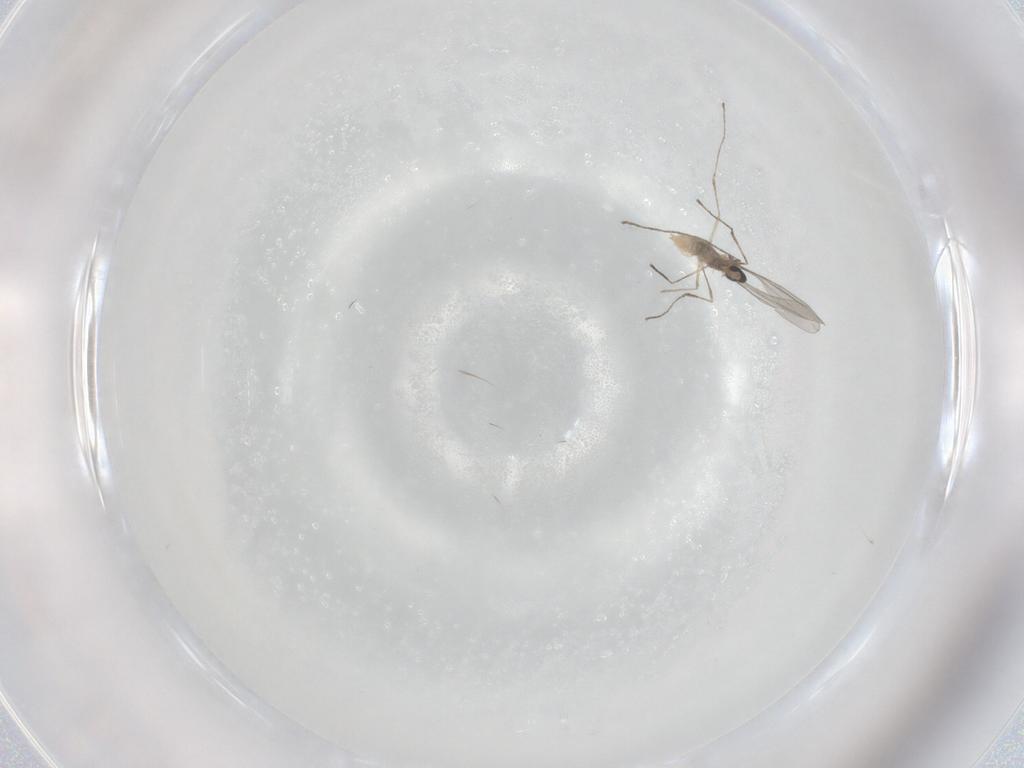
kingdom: Animalia
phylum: Arthropoda
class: Insecta
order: Diptera
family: Cecidomyiidae
